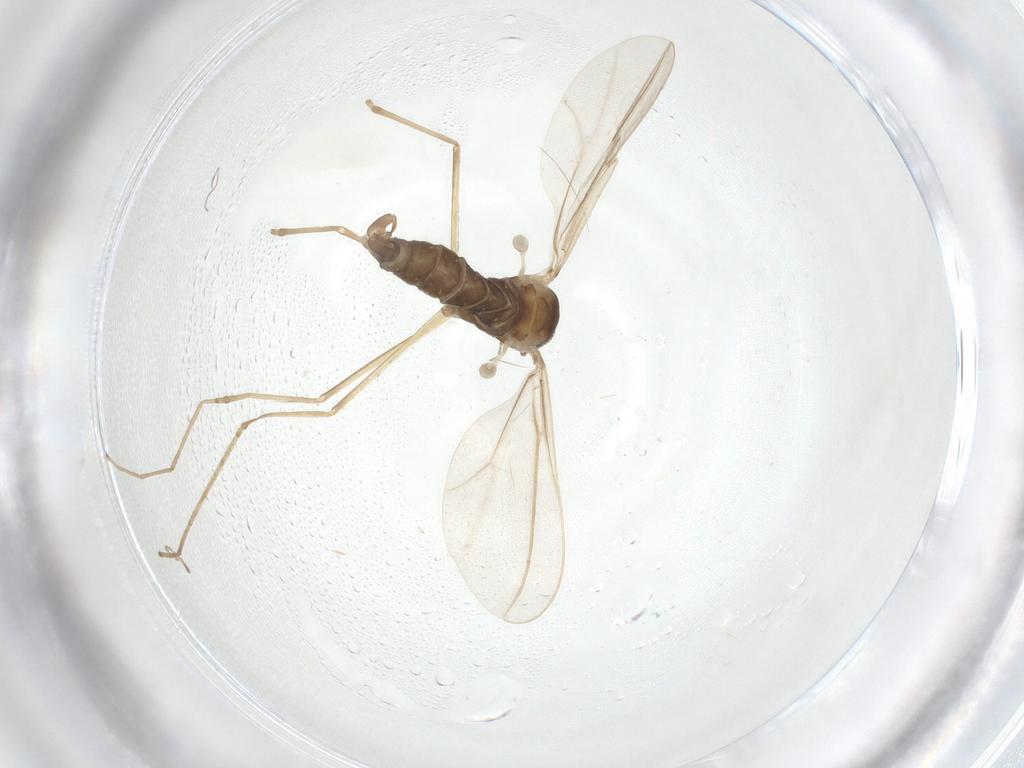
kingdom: Animalia
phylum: Arthropoda
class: Insecta
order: Diptera
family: Cecidomyiidae
